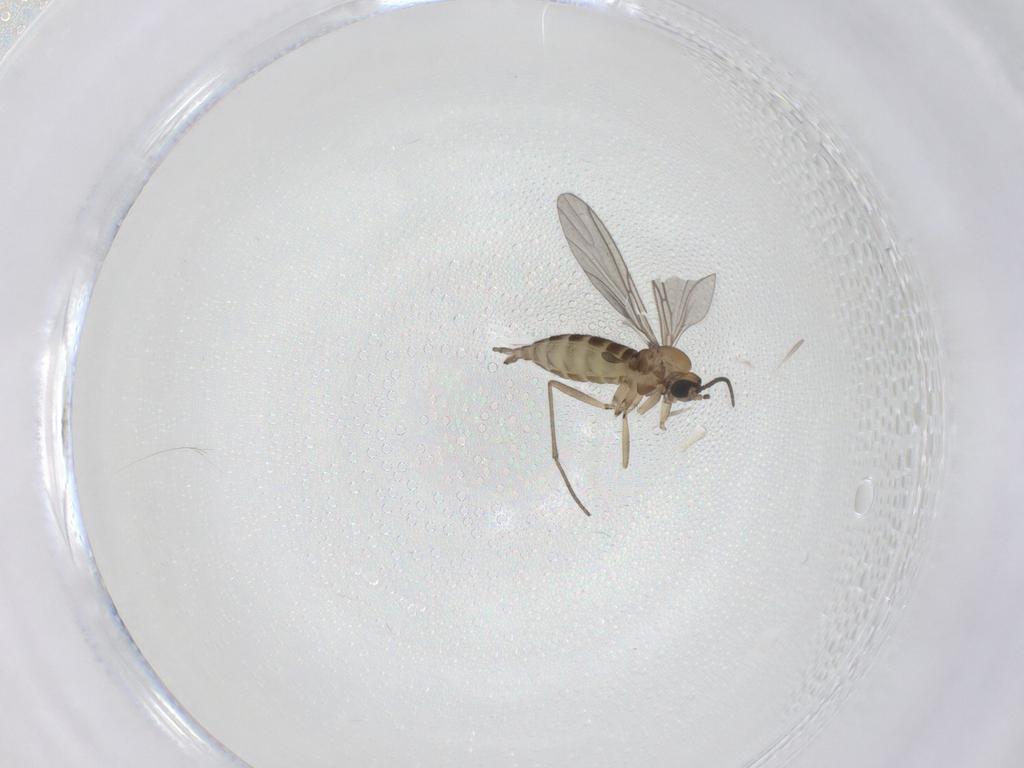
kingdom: Animalia
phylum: Arthropoda
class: Insecta
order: Diptera
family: Sciaridae
